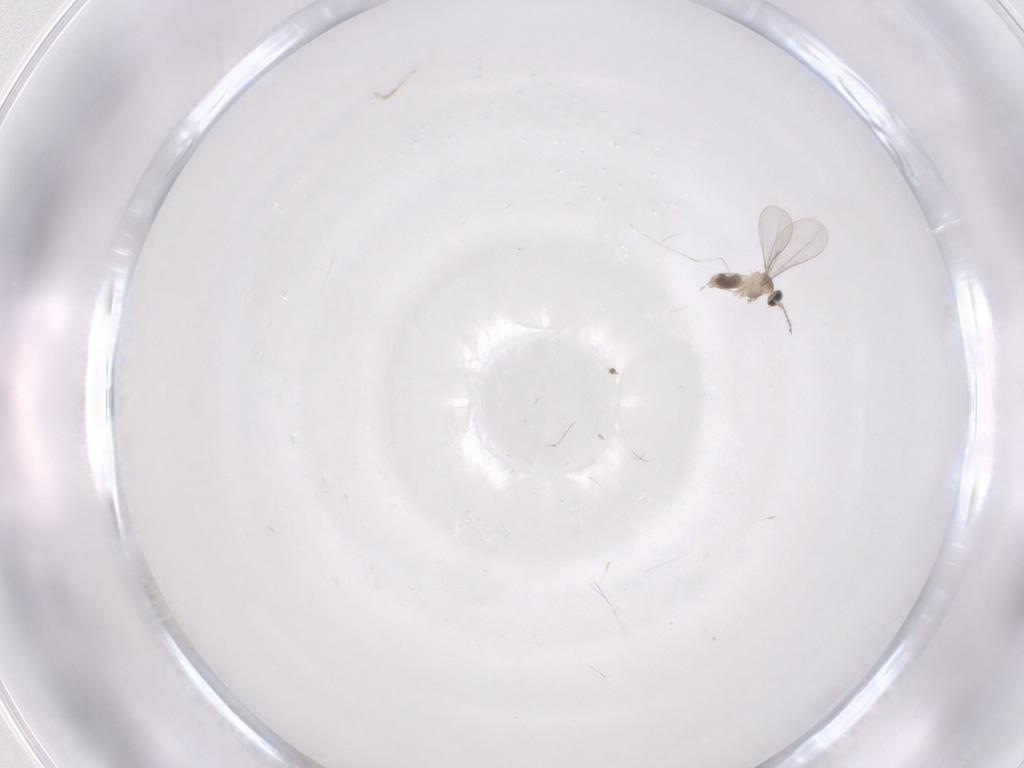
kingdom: Animalia
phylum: Arthropoda
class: Insecta
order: Diptera
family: Cecidomyiidae
